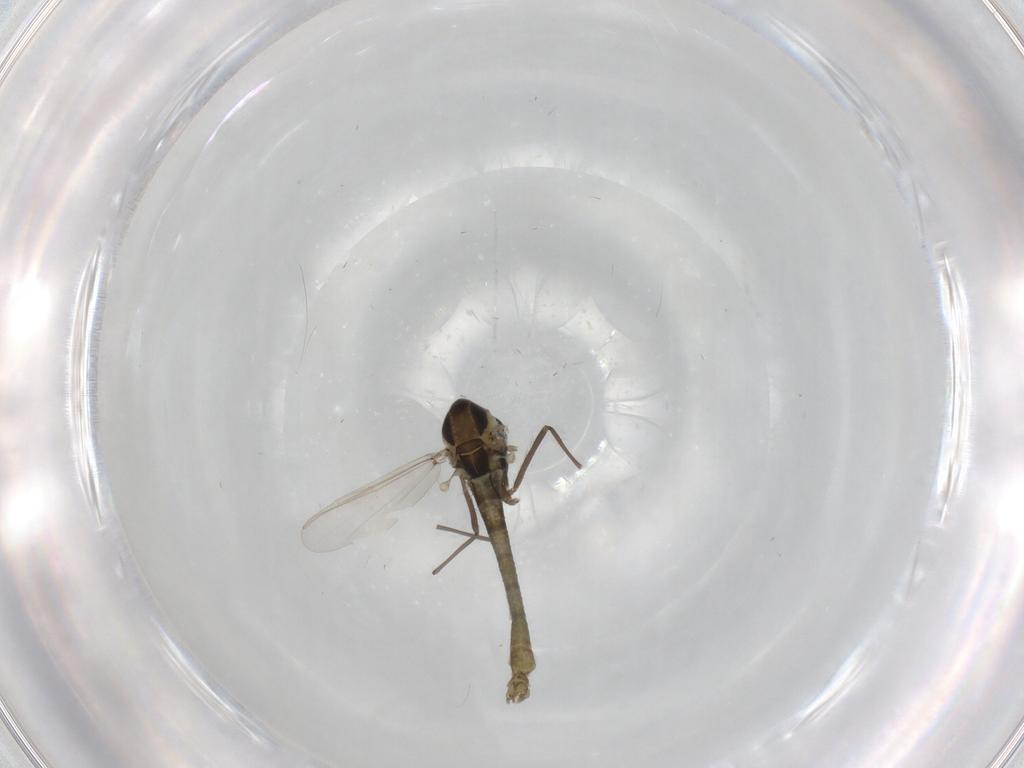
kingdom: Animalia
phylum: Arthropoda
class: Insecta
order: Diptera
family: Chironomidae
